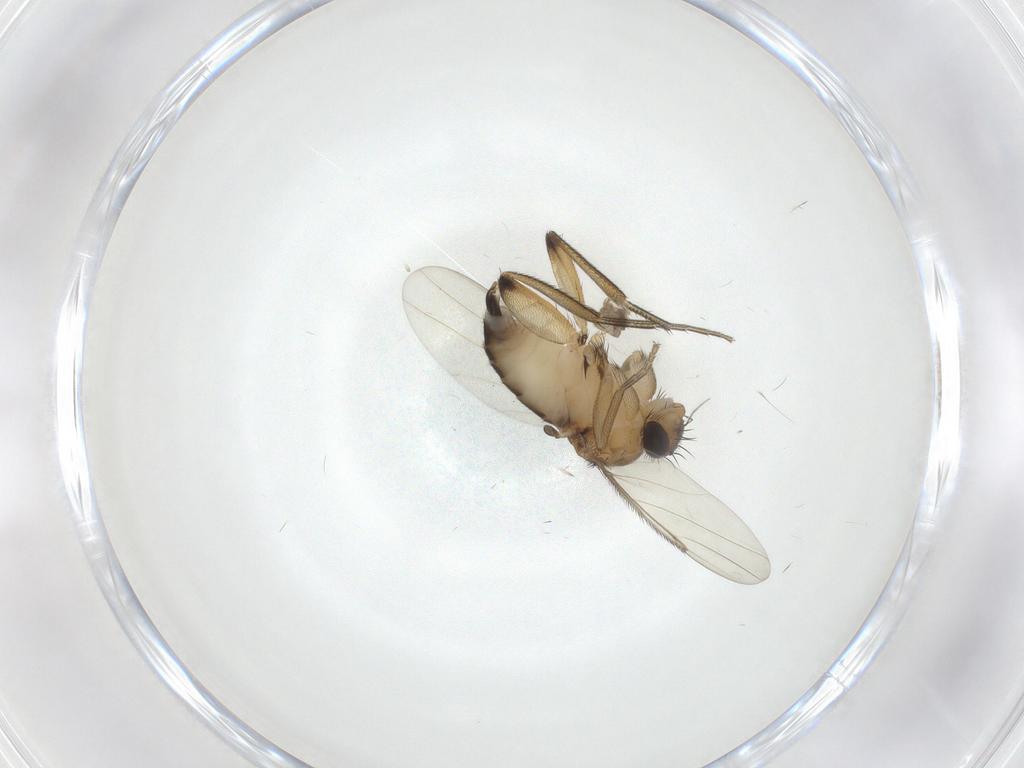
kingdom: Animalia
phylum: Arthropoda
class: Insecta
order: Diptera
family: Phoridae
